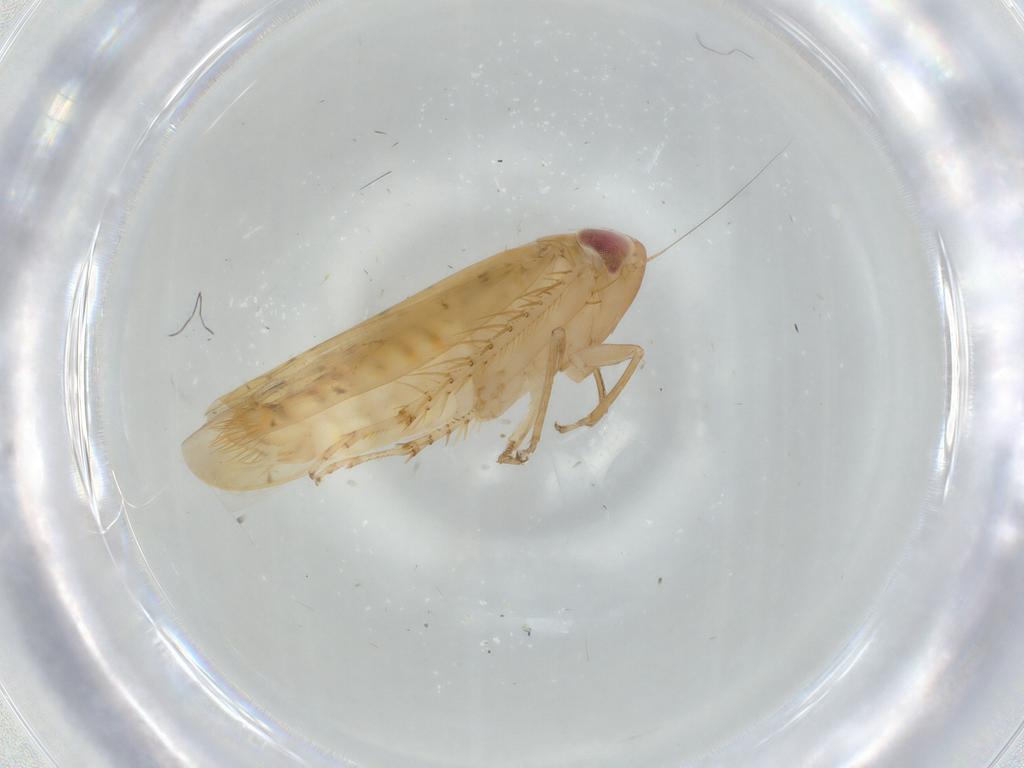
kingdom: Animalia
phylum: Arthropoda
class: Insecta
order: Hemiptera
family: Cicadellidae
